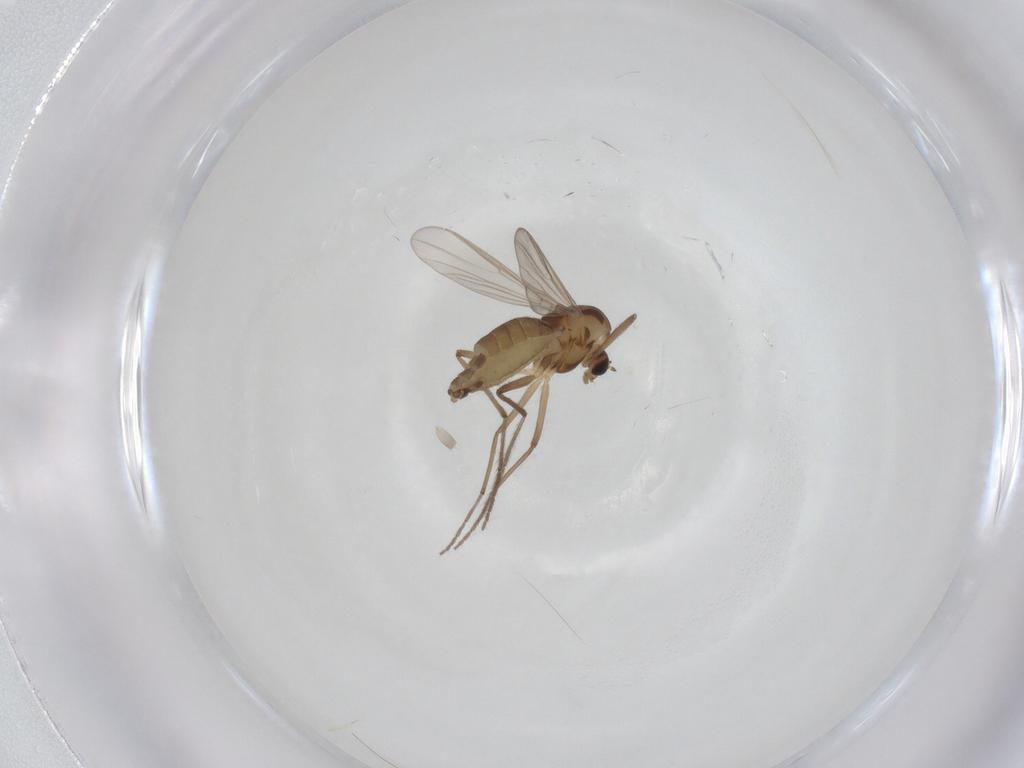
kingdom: Animalia
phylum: Arthropoda
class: Insecta
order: Diptera
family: Chironomidae
